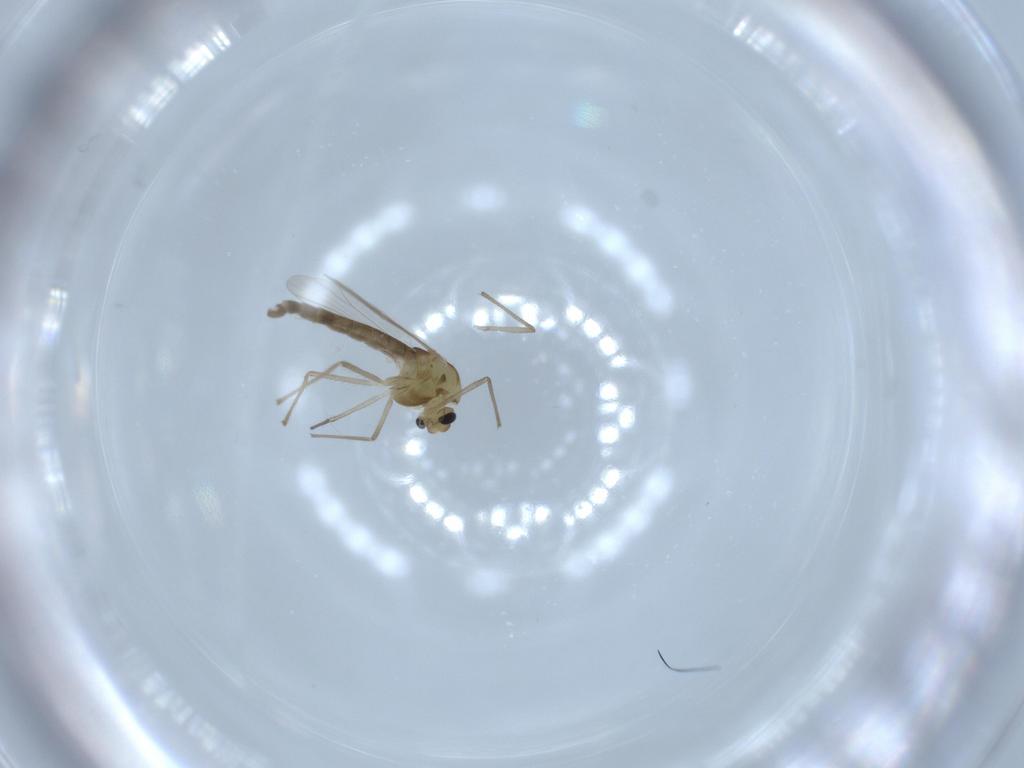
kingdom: Animalia
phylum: Arthropoda
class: Insecta
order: Diptera
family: Chironomidae
